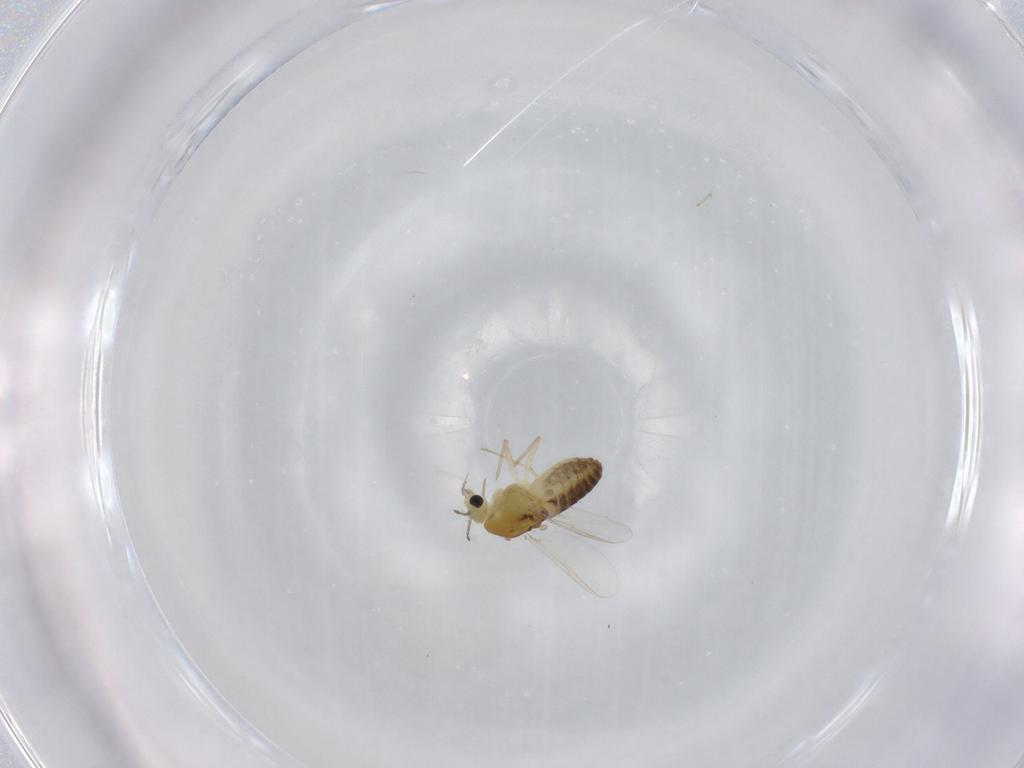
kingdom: Animalia
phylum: Arthropoda
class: Insecta
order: Diptera
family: Chironomidae
